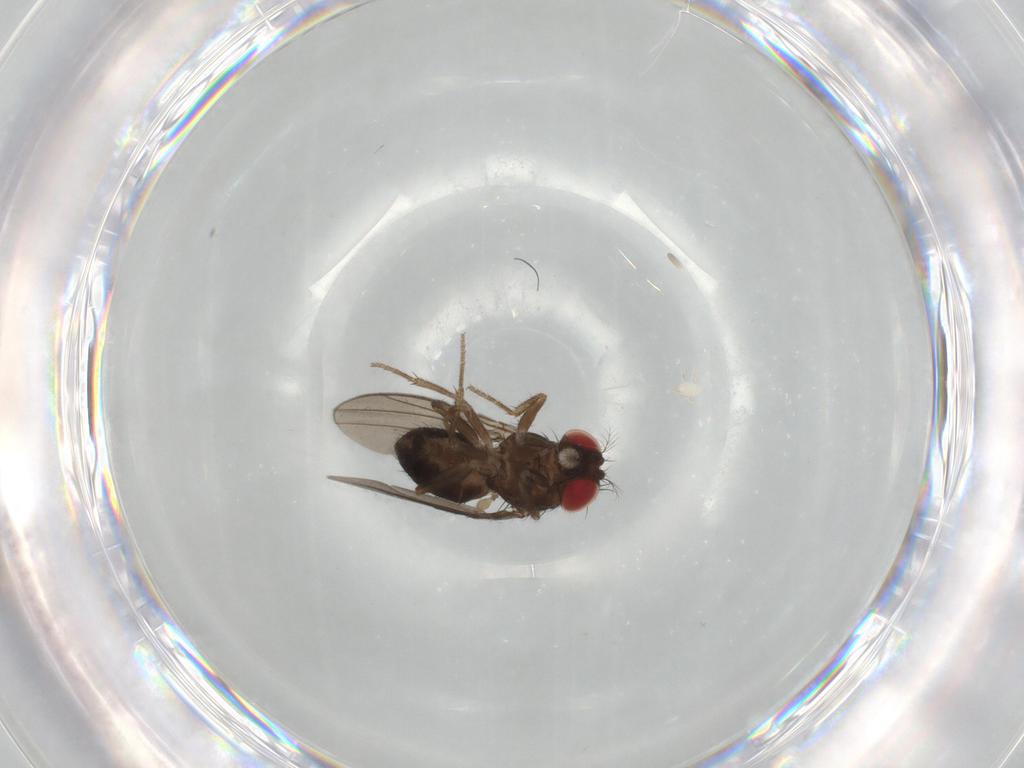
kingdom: Animalia
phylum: Arthropoda
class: Insecta
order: Diptera
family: Drosophilidae
